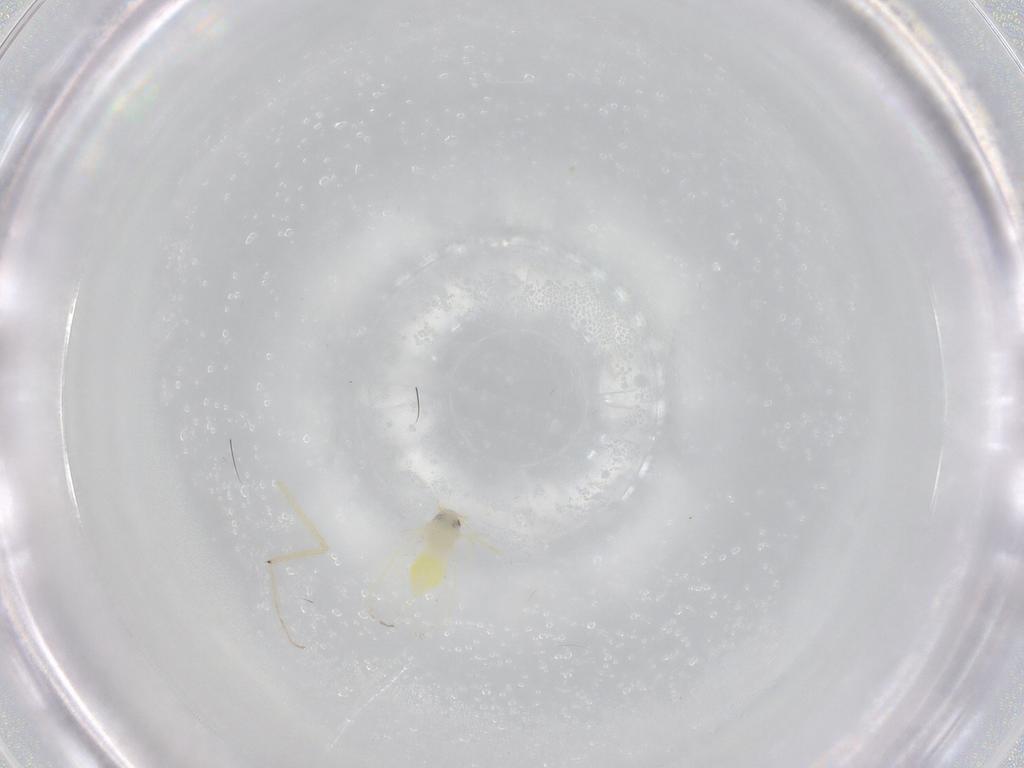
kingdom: Animalia
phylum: Arthropoda
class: Insecta
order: Hemiptera
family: Aleyrodidae
